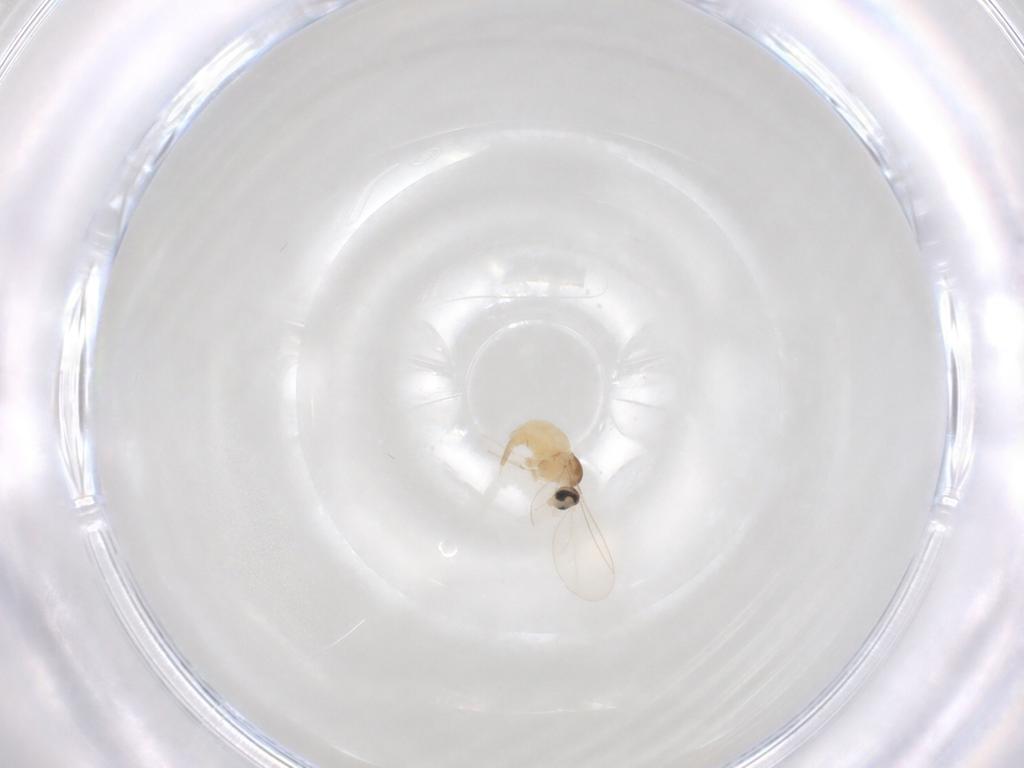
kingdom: Animalia
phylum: Arthropoda
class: Insecta
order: Diptera
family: Cecidomyiidae
